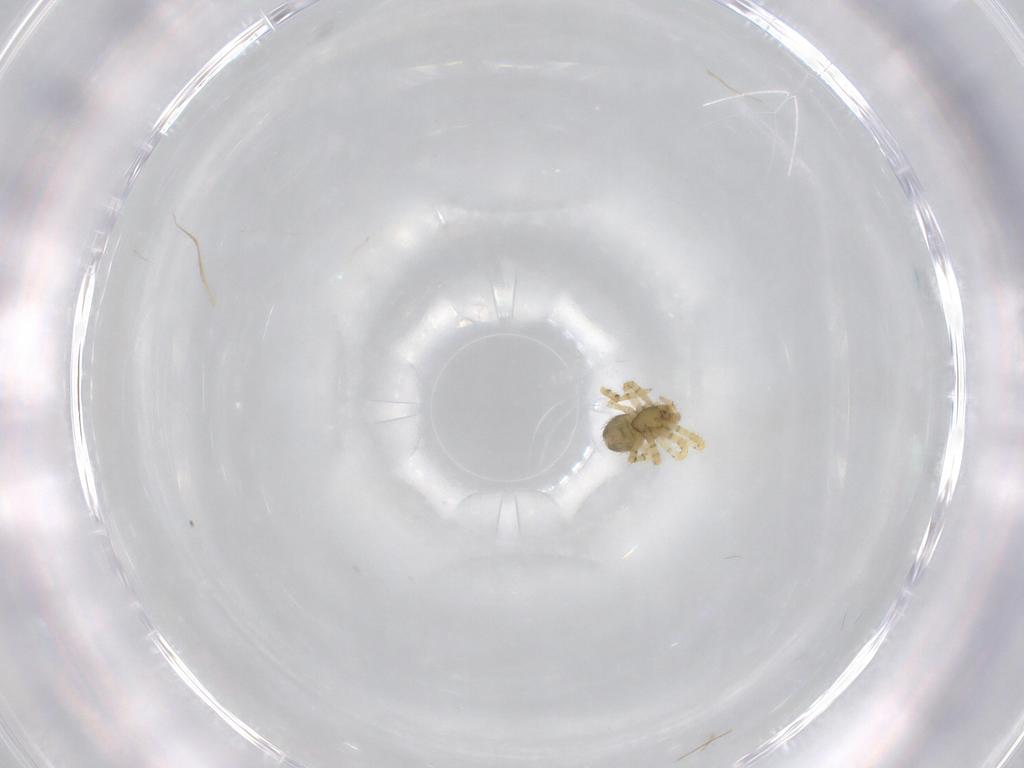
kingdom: Animalia
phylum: Arthropoda
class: Arachnida
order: Araneae
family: Theridiidae
